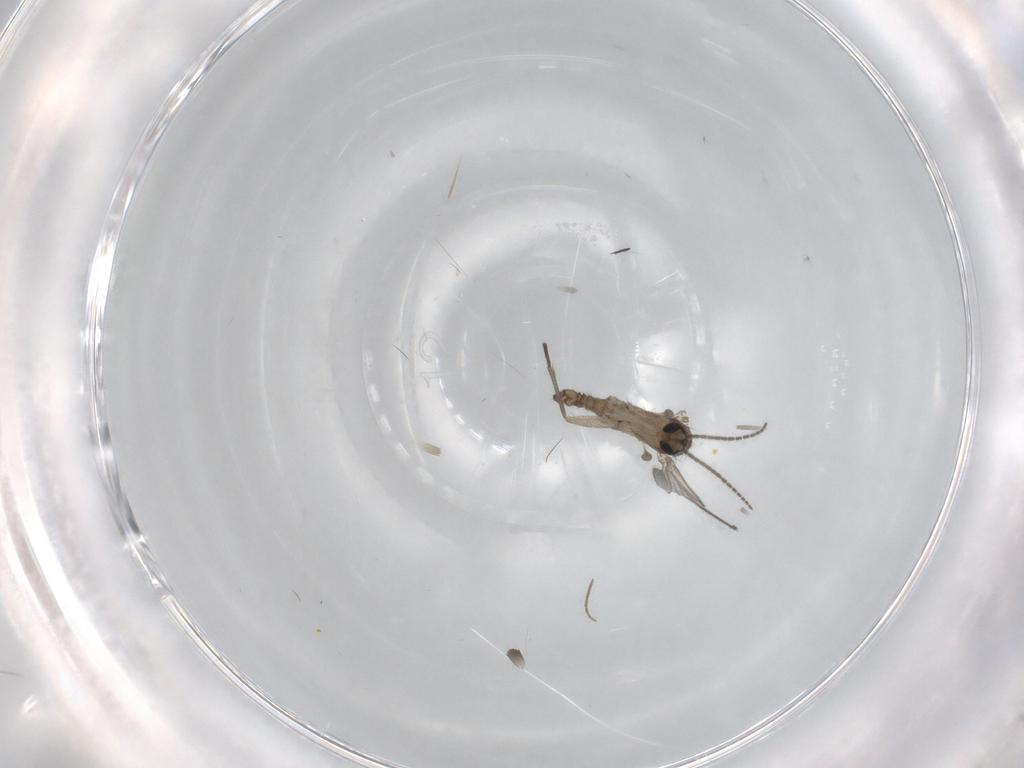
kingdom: Animalia
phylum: Arthropoda
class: Insecta
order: Diptera
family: Sciaridae
